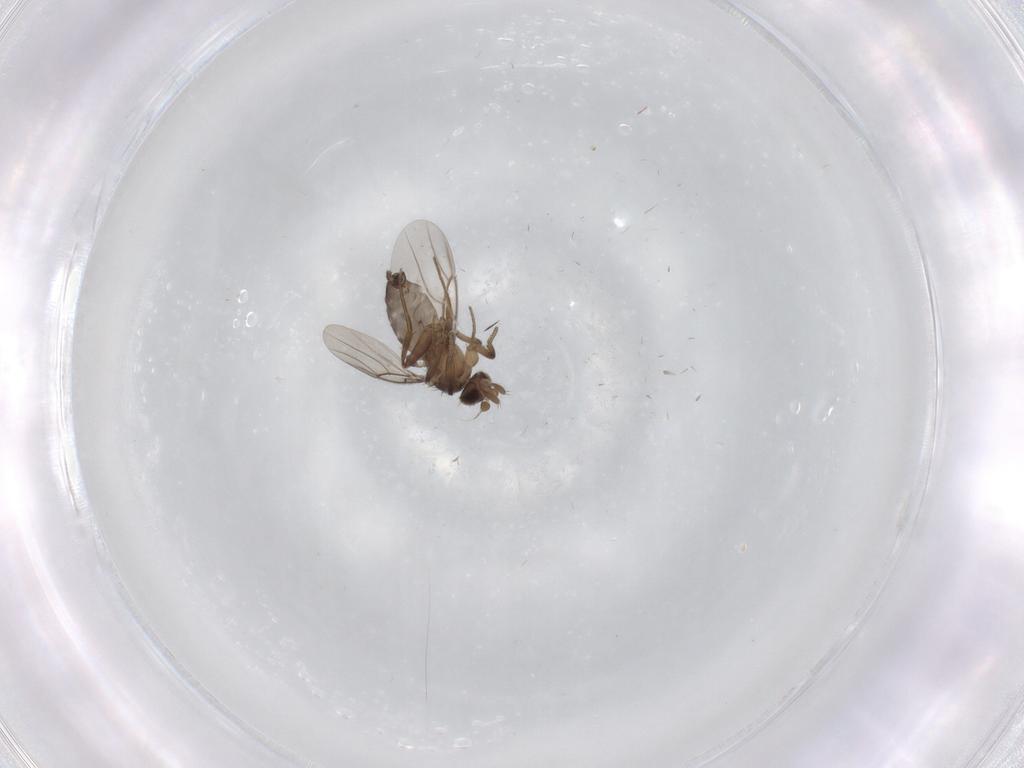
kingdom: Animalia
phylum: Arthropoda
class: Insecta
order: Diptera
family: Phoridae
